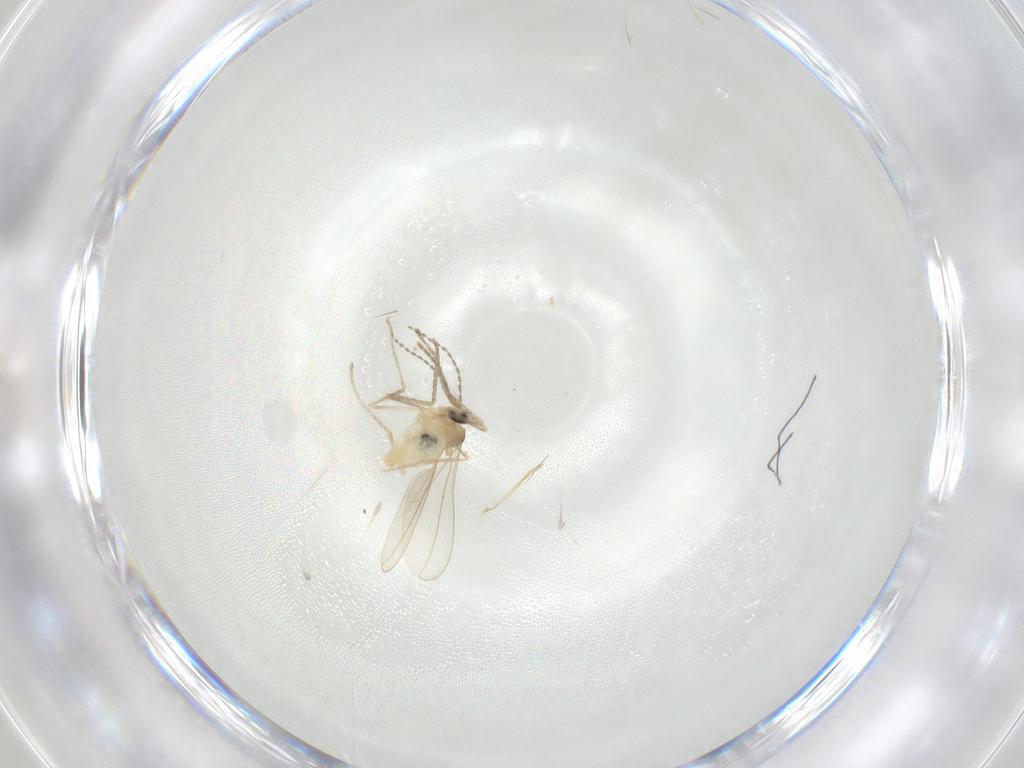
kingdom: Animalia
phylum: Arthropoda
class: Insecta
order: Diptera
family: Cecidomyiidae
